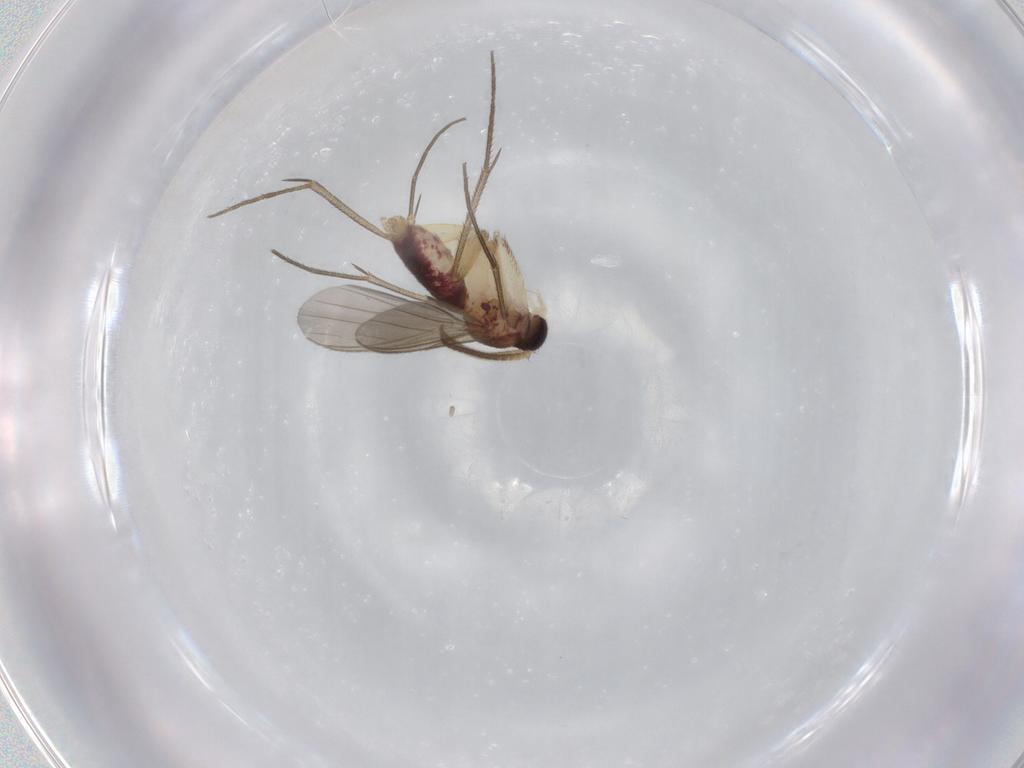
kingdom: Animalia
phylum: Arthropoda
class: Insecta
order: Diptera
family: Mycetophilidae
